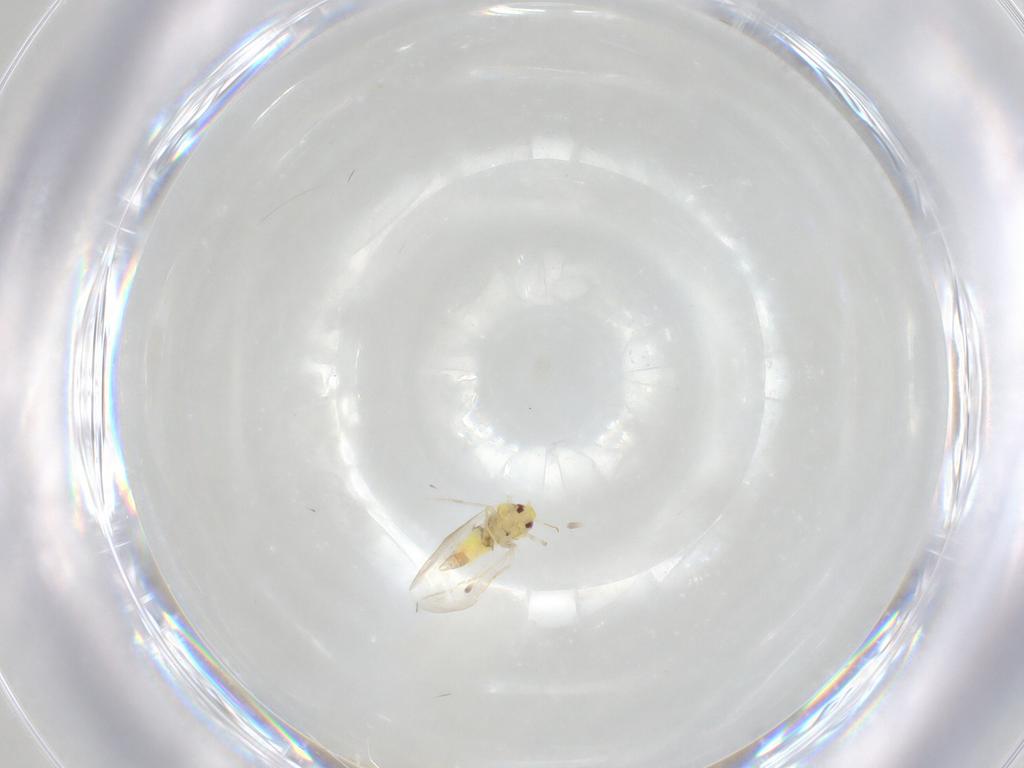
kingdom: Animalia
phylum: Arthropoda
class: Insecta
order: Hemiptera
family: Aleyrodidae
